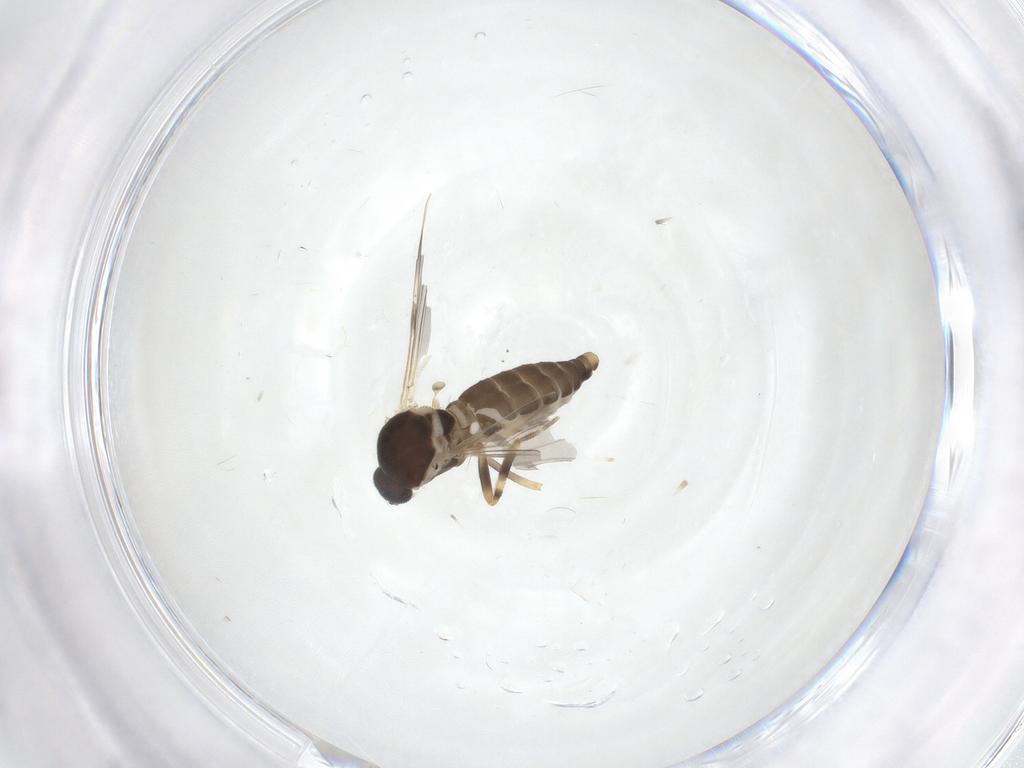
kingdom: Animalia
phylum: Arthropoda
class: Insecta
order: Diptera
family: Ceratopogonidae
